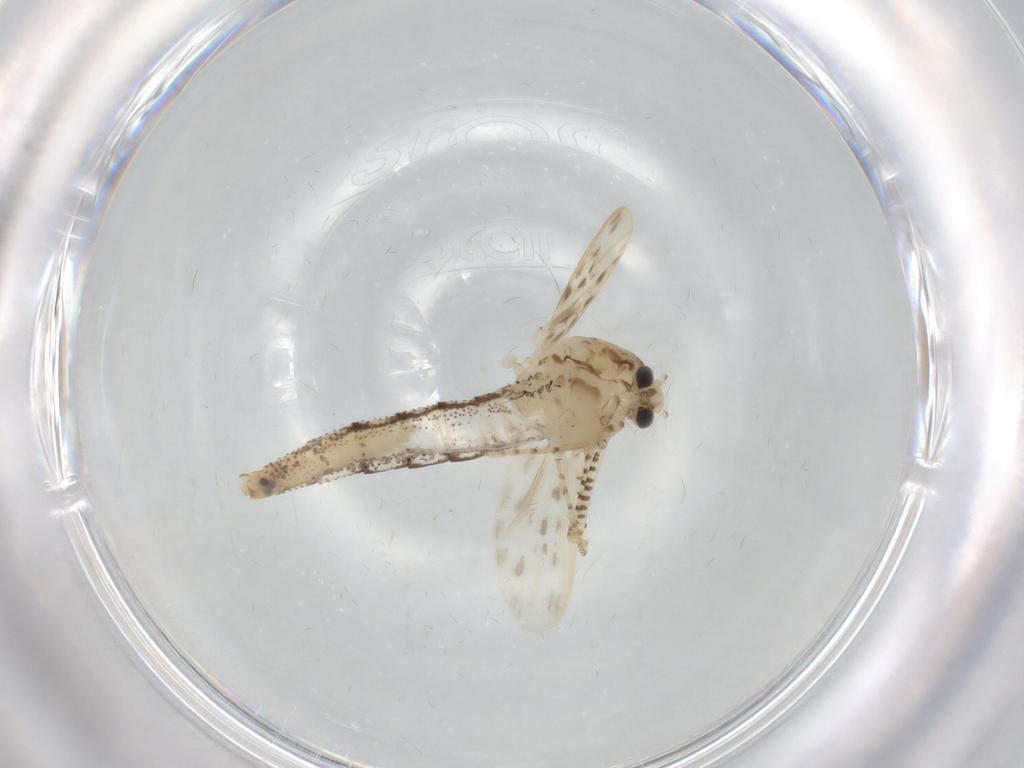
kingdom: Animalia
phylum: Arthropoda
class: Insecta
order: Diptera
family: Chaoboridae
